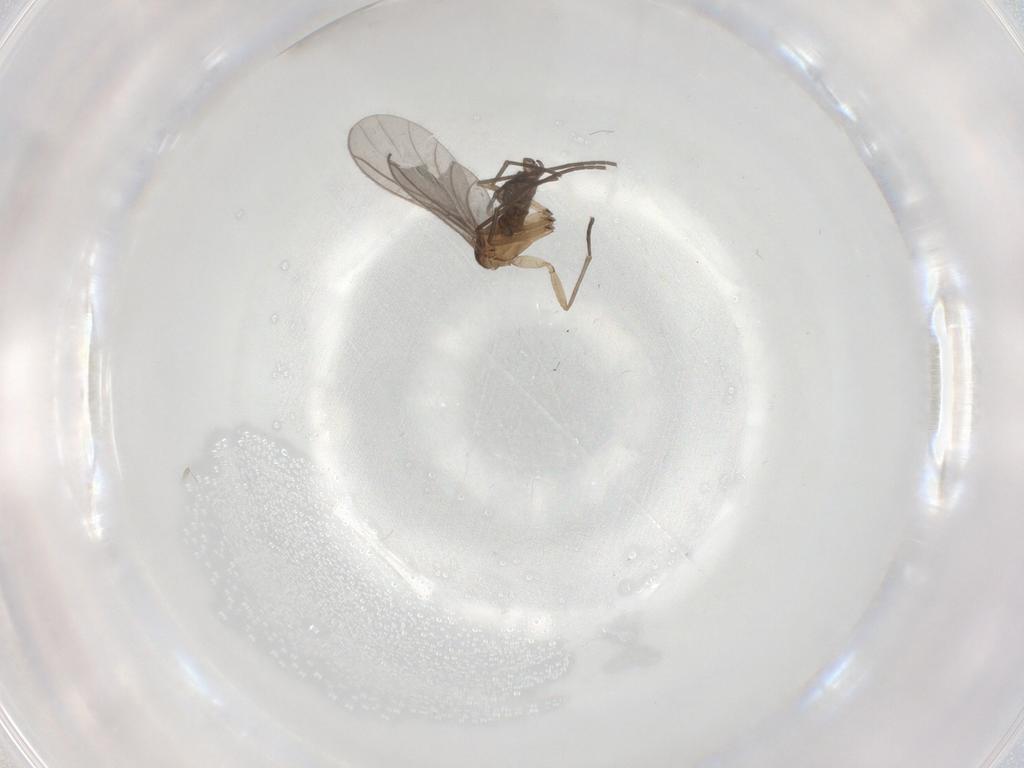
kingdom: Animalia
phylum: Arthropoda
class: Insecta
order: Diptera
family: Sciaridae
